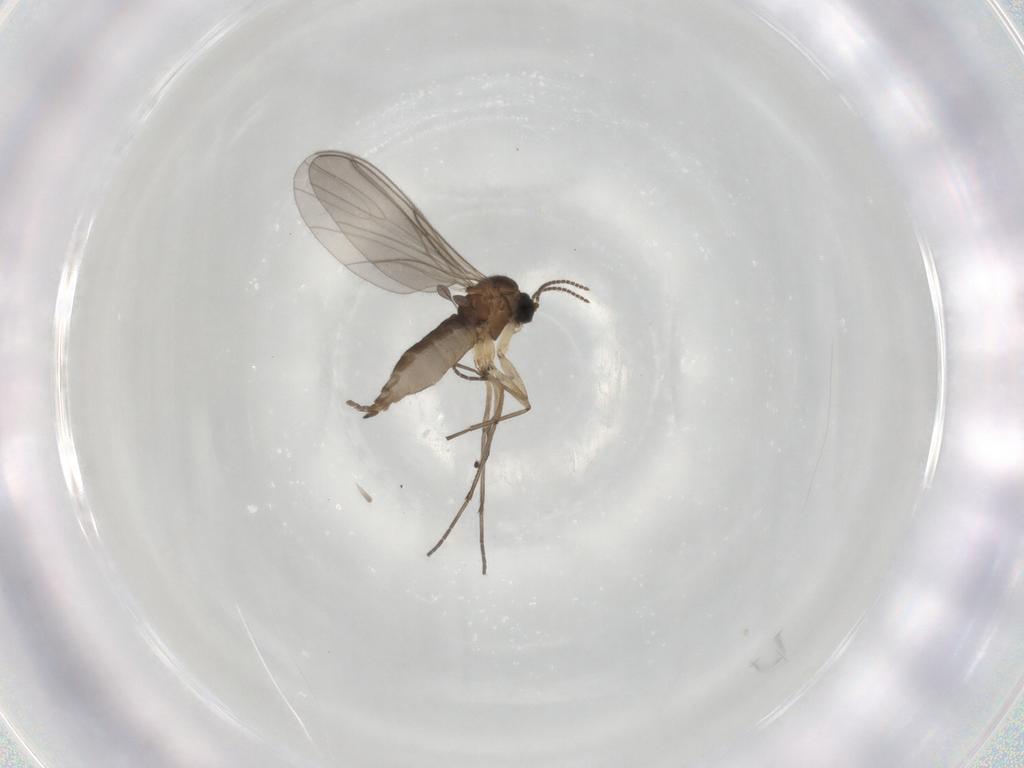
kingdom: Animalia
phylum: Arthropoda
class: Insecta
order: Diptera
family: Sciaridae
